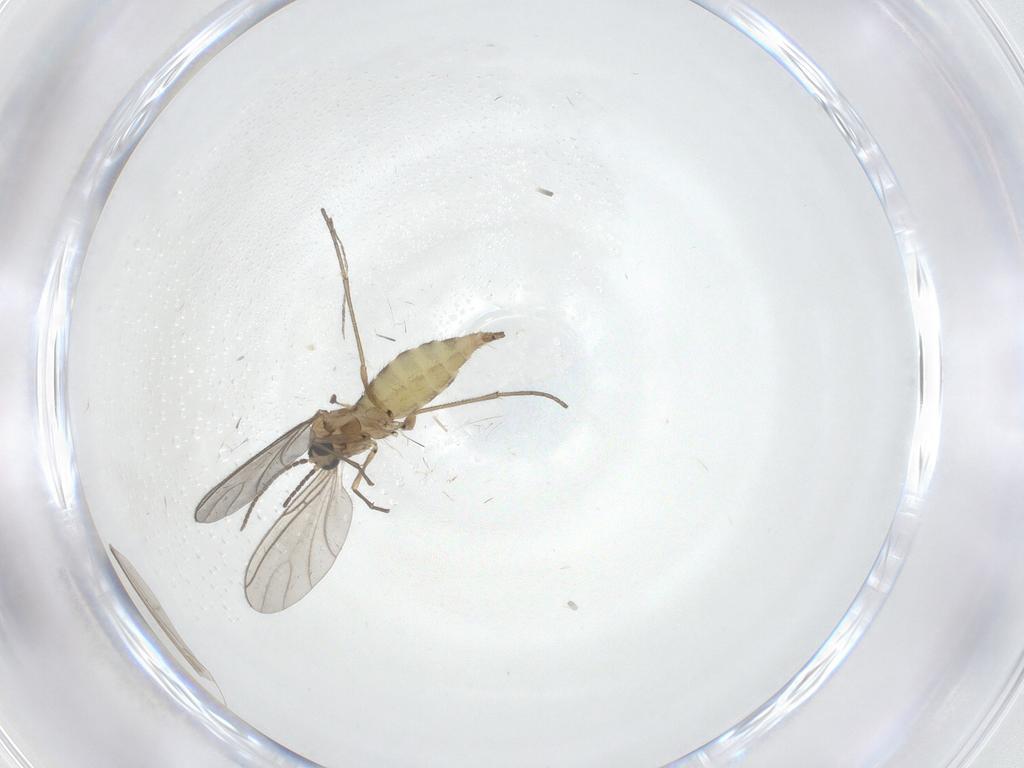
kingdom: Animalia
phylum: Arthropoda
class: Insecta
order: Diptera
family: Sciaridae
